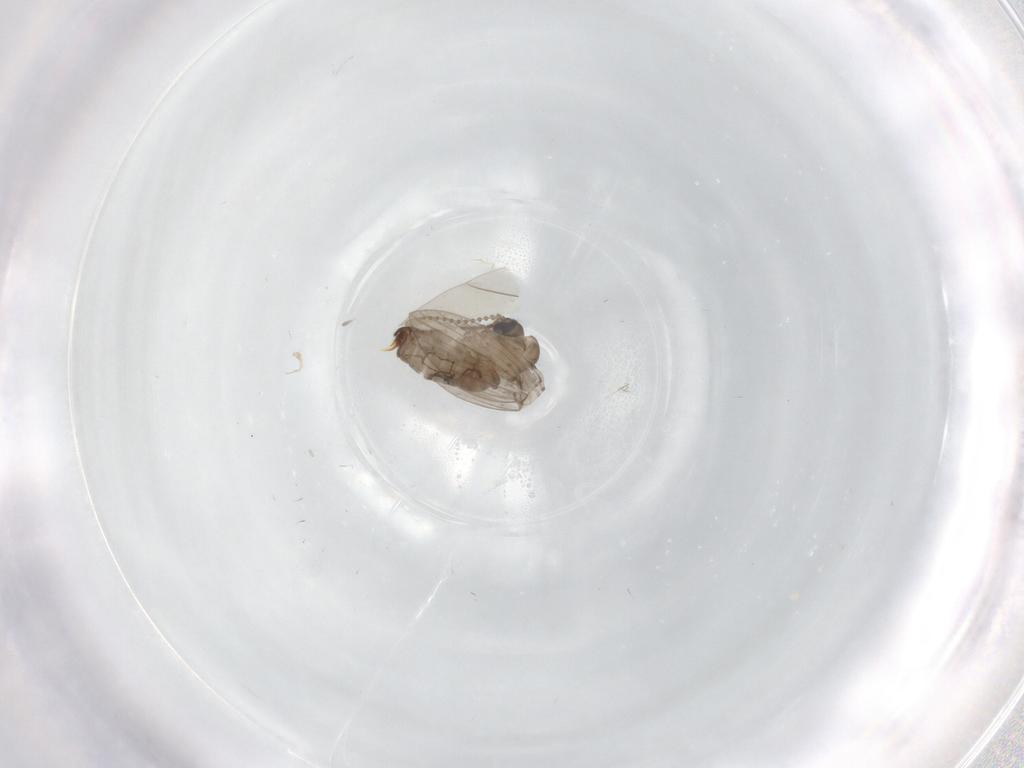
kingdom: Animalia
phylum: Arthropoda
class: Insecta
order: Diptera
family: Psychodidae
